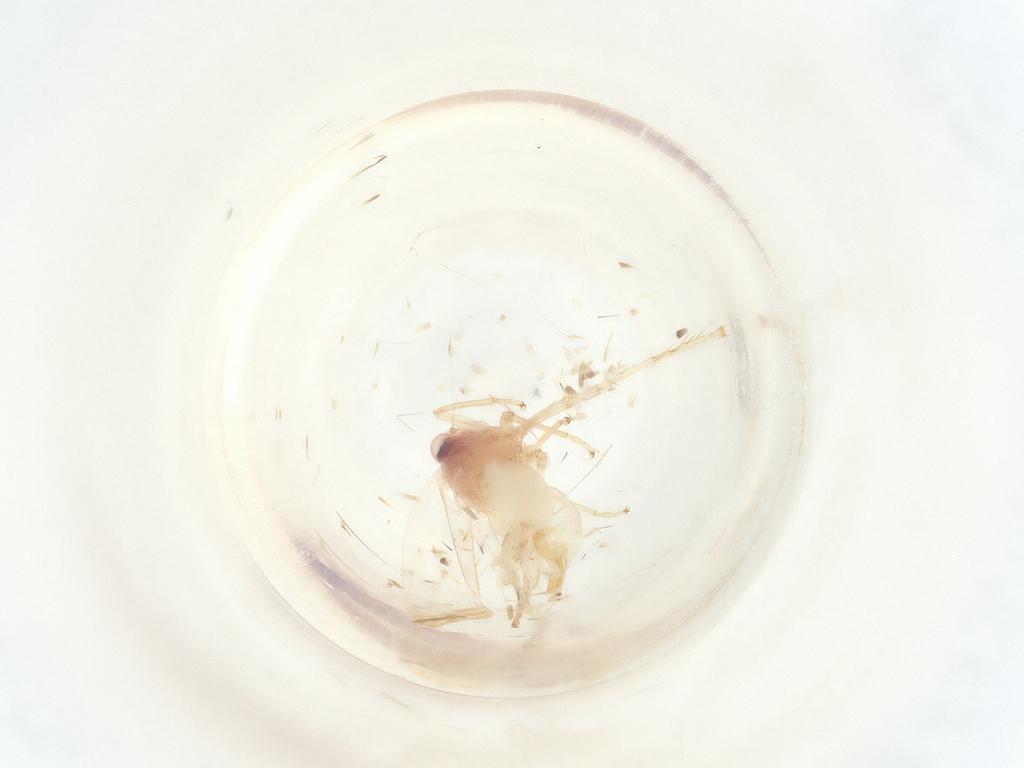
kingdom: Animalia
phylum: Arthropoda
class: Insecta
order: Hemiptera
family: Cicadellidae
